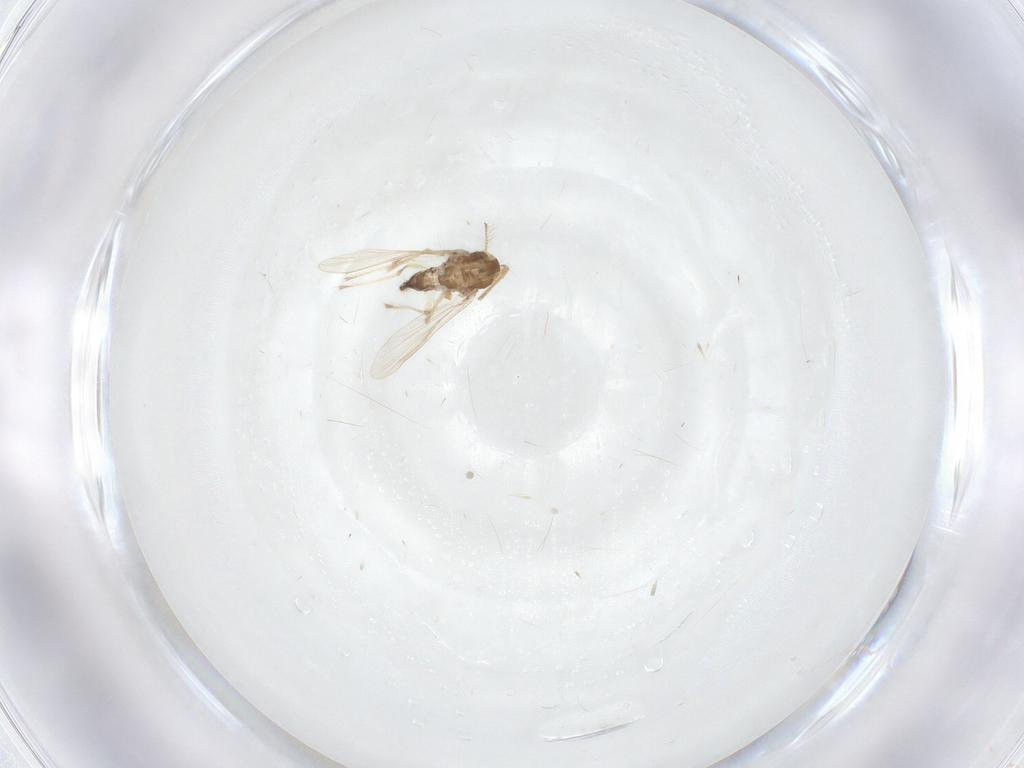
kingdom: Animalia
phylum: Arthropoda
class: Insecta
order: Diptera
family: Chironomidae
